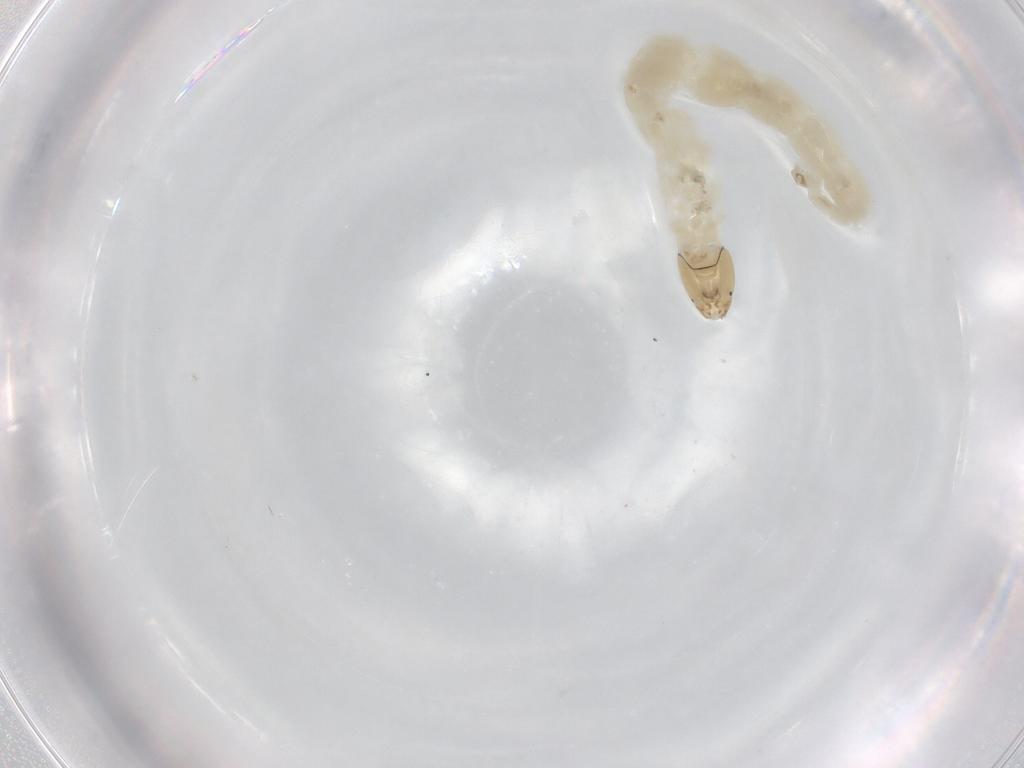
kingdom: Animalia
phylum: Arthropoda
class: Insecta
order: Diptera
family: Chironomidae
